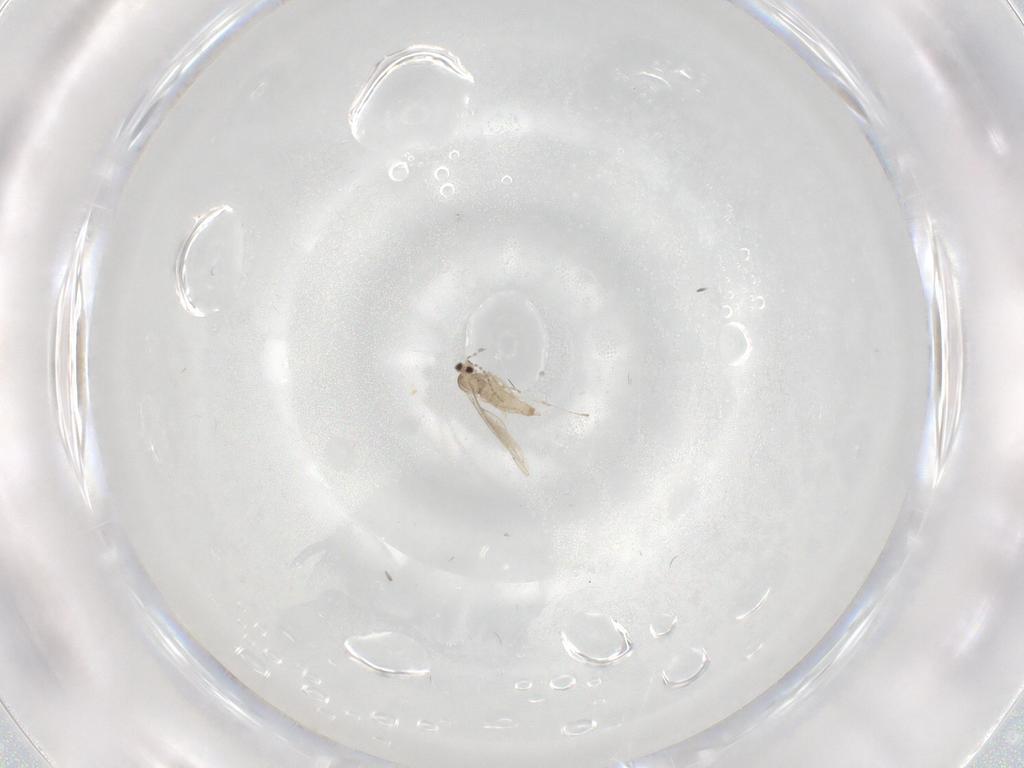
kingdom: Animalia
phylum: Arthropoda
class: Insecta
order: Diptera
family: Cecidomyiidae
